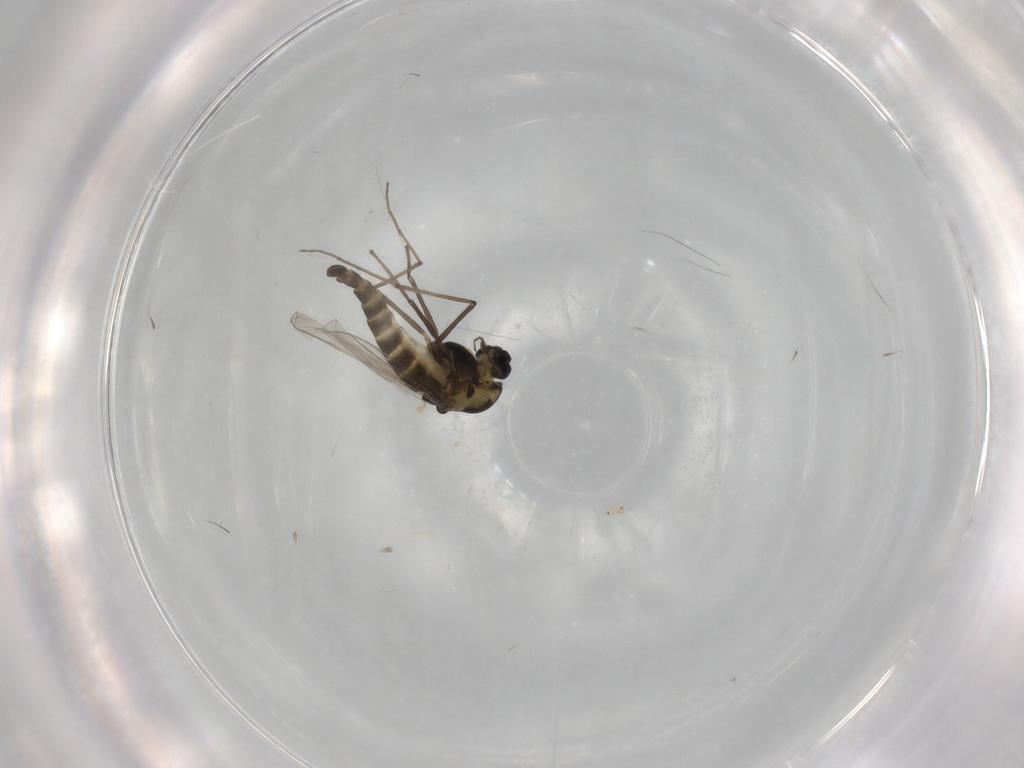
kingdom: Animalia
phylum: Arthropoda
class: Insecta
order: Diptera
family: Chironomidae
